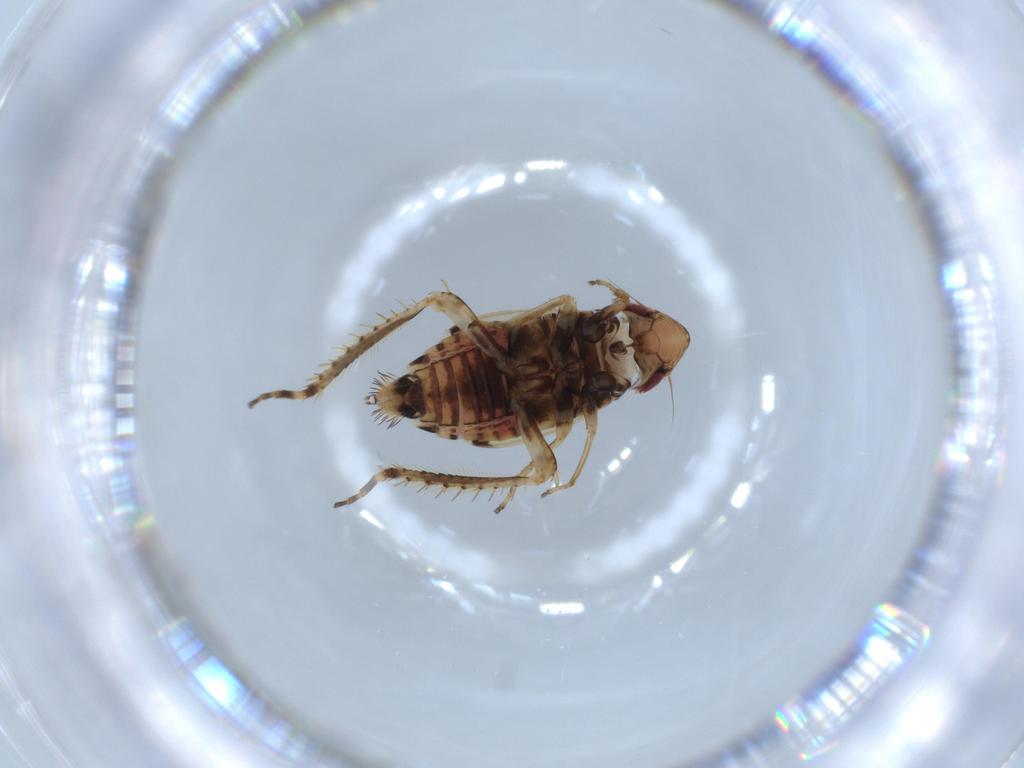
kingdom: Animalia
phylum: Arthropoda
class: Insecta
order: Hemiptera
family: Cicadellidae
